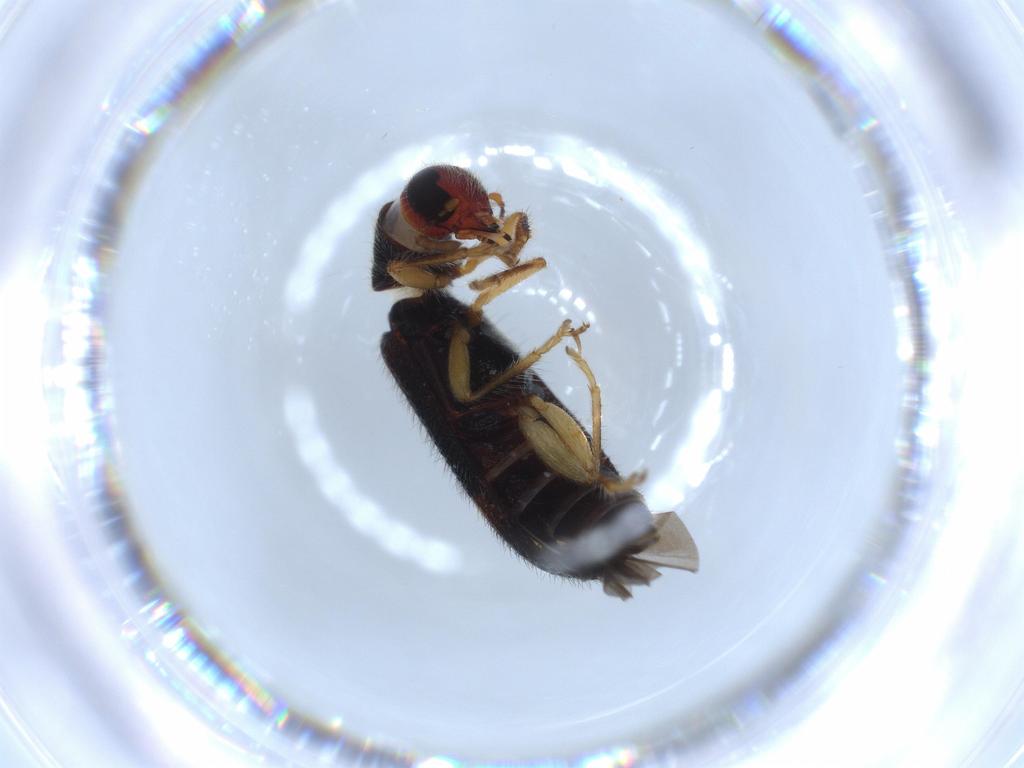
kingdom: Animalia
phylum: Arthropoda
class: Insecta
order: Coleoptera
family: Cleridae
